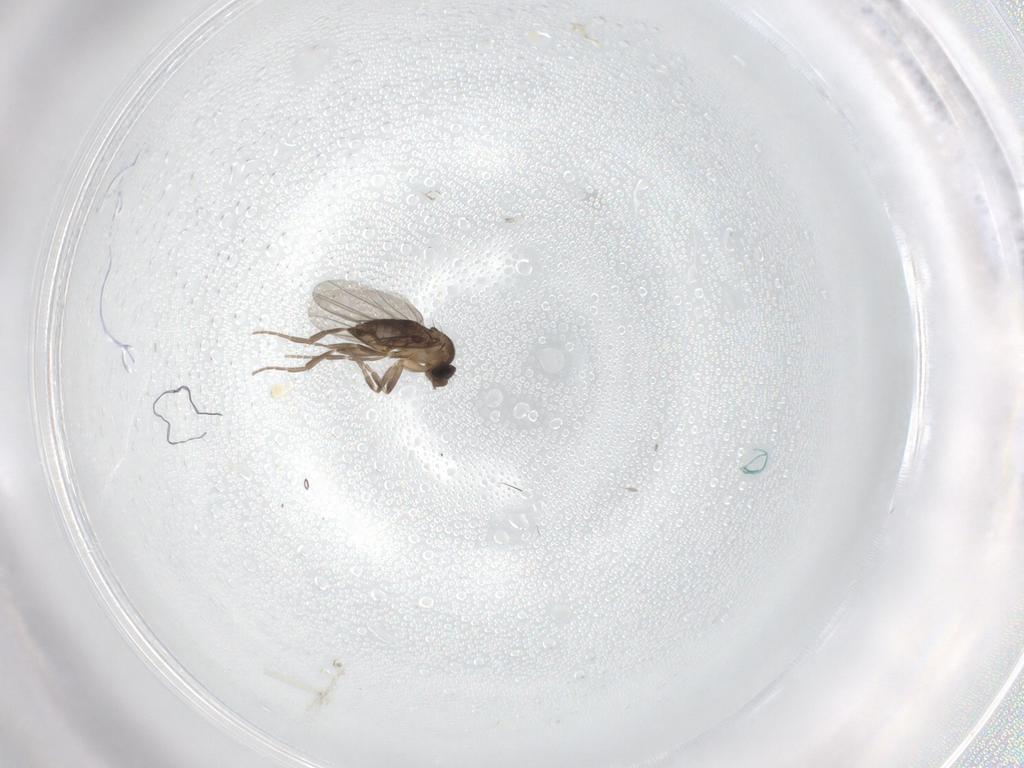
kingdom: Animalia
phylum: Arthropoda
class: Insecta
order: Diptera
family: Phoridae
